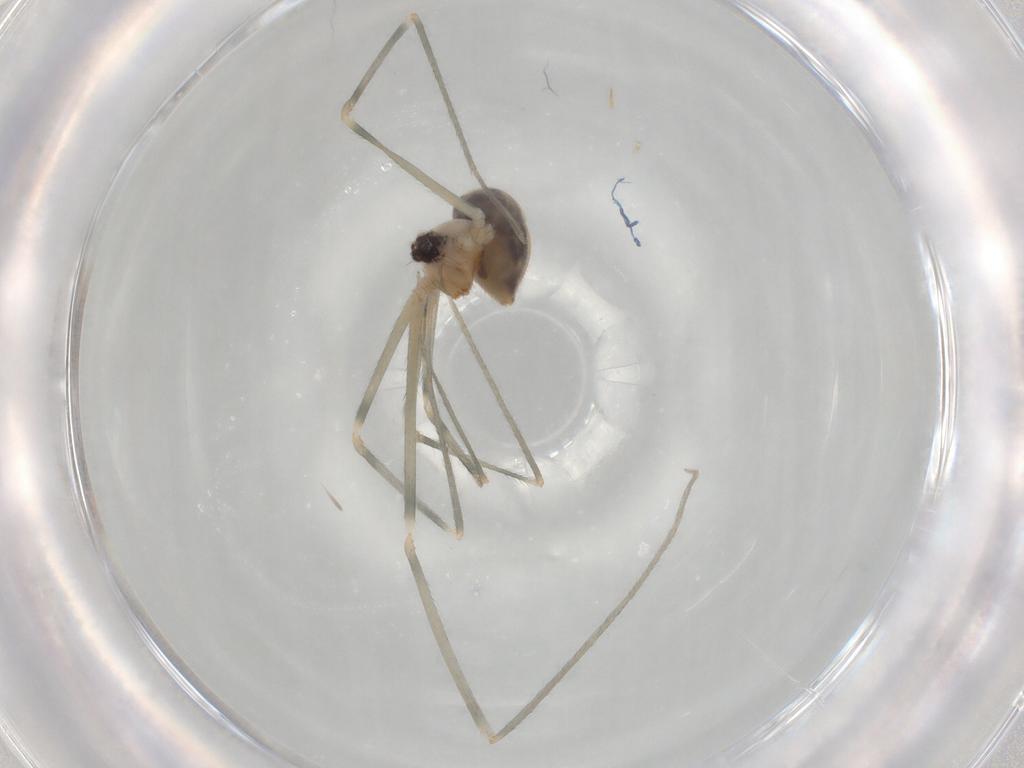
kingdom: Animalia
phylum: Arthropoda
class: Arachnida
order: Araneae
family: Pholcidae
